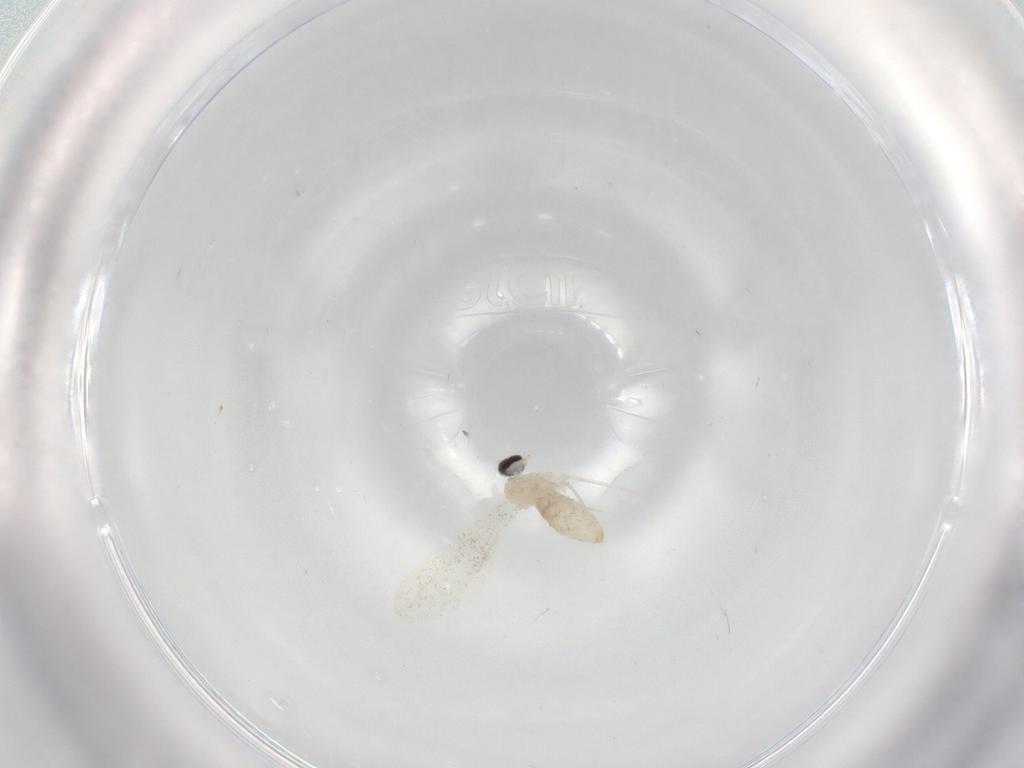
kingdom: Animalia
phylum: Arthropoda
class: Insecta
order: Diptera
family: Cecidomyiidae
